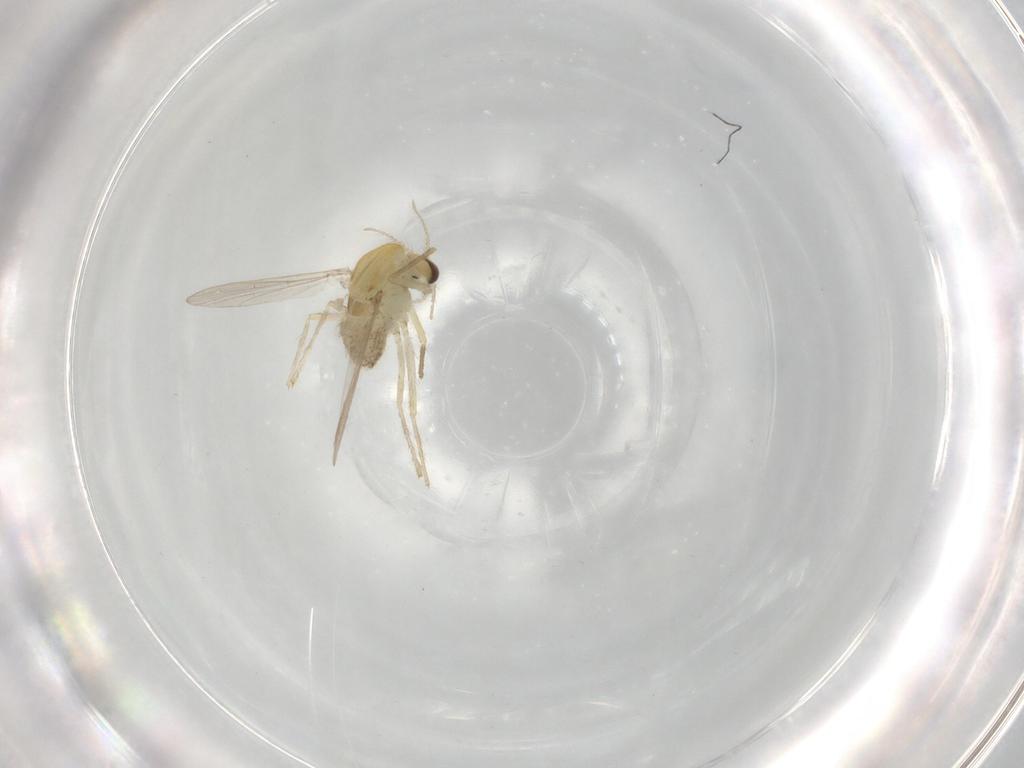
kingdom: Animalia
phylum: Arthropoda
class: Insecta
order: Diptera
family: Chironomidae
